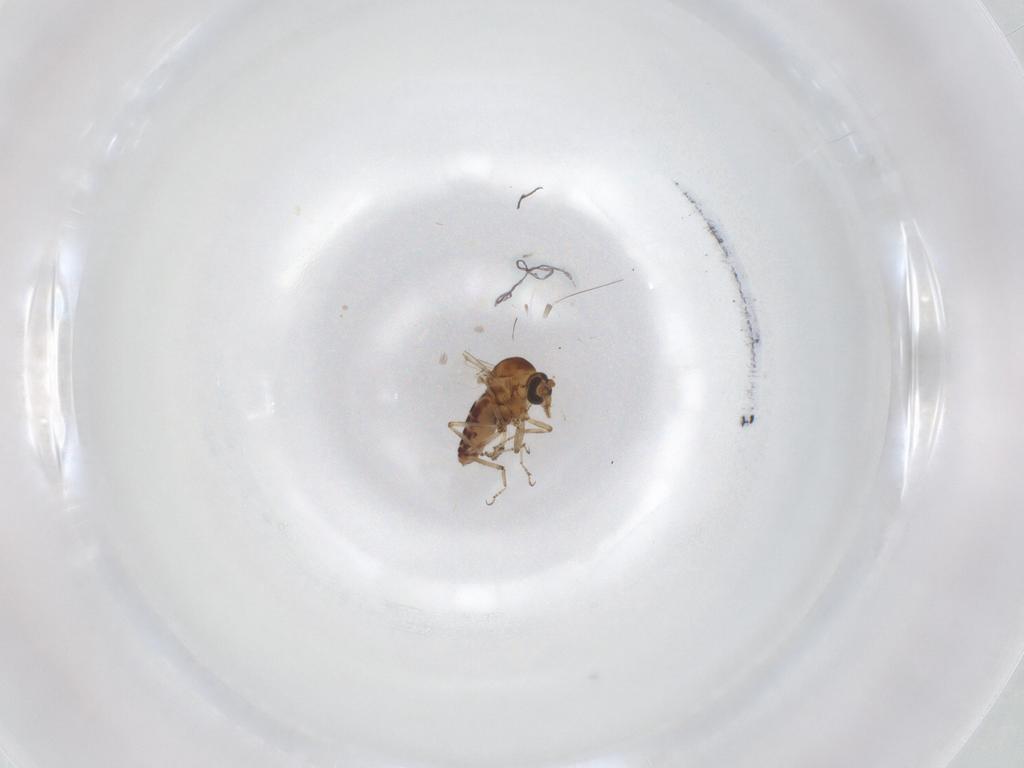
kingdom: Animalia
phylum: Arthropoda
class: Insecta
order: Diptera
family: Ceratopogonidae
